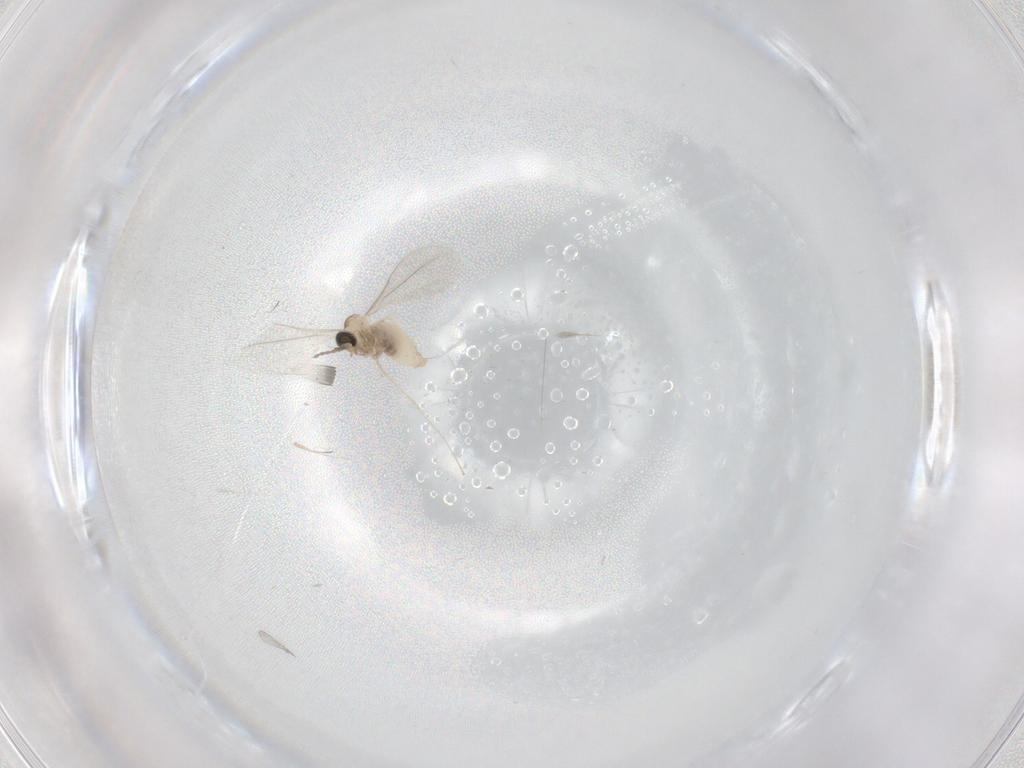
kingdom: Animalia
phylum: Arthropoda
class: Insecta
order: Diptera
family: Cecidomyiidae
